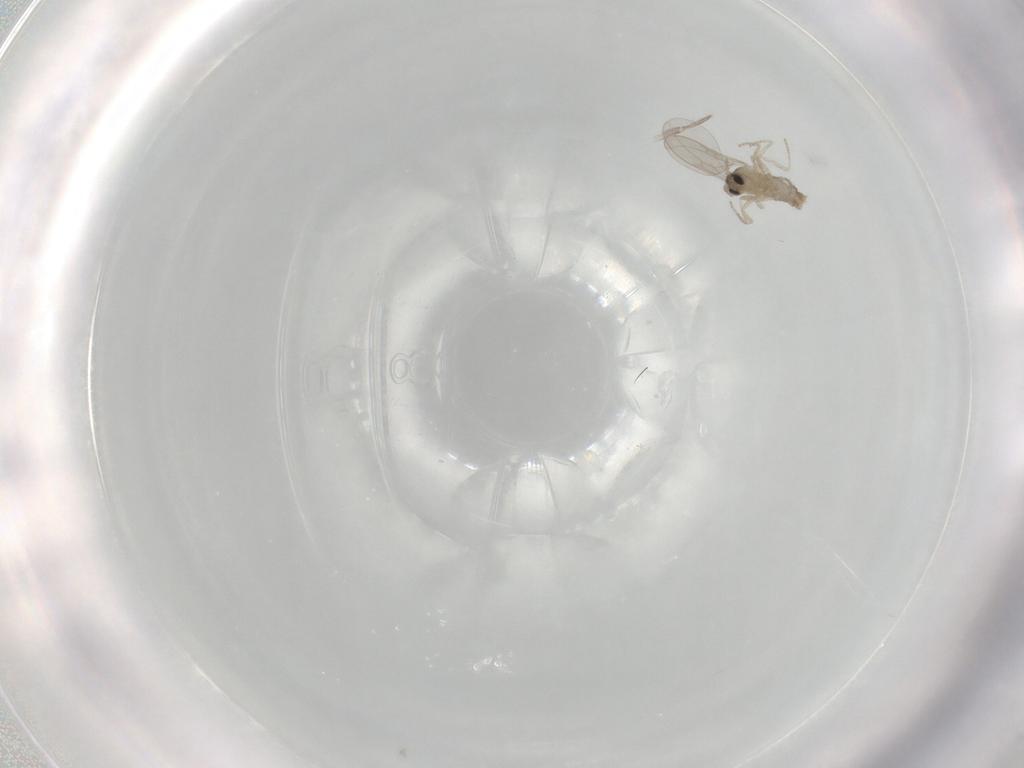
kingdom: Animalia
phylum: Arthropoda
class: Insecta
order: Diptera
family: Cecidomyiidae
